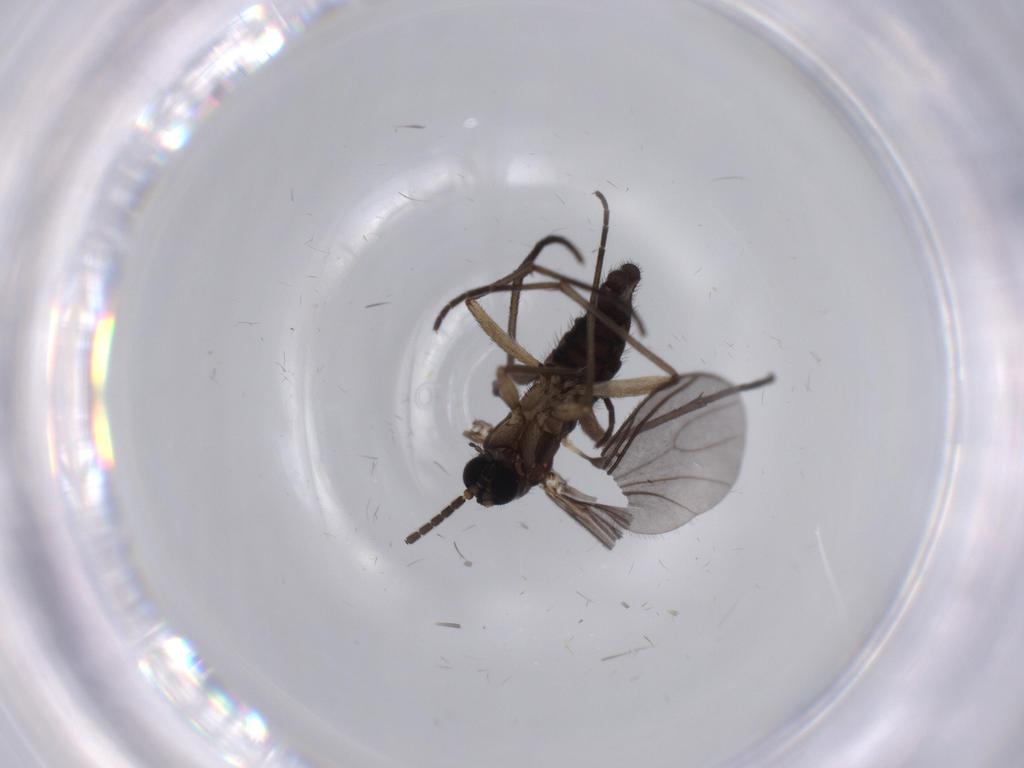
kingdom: Animalia
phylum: Arthropoda
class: Insecta
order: Diptera
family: Sciaridae
